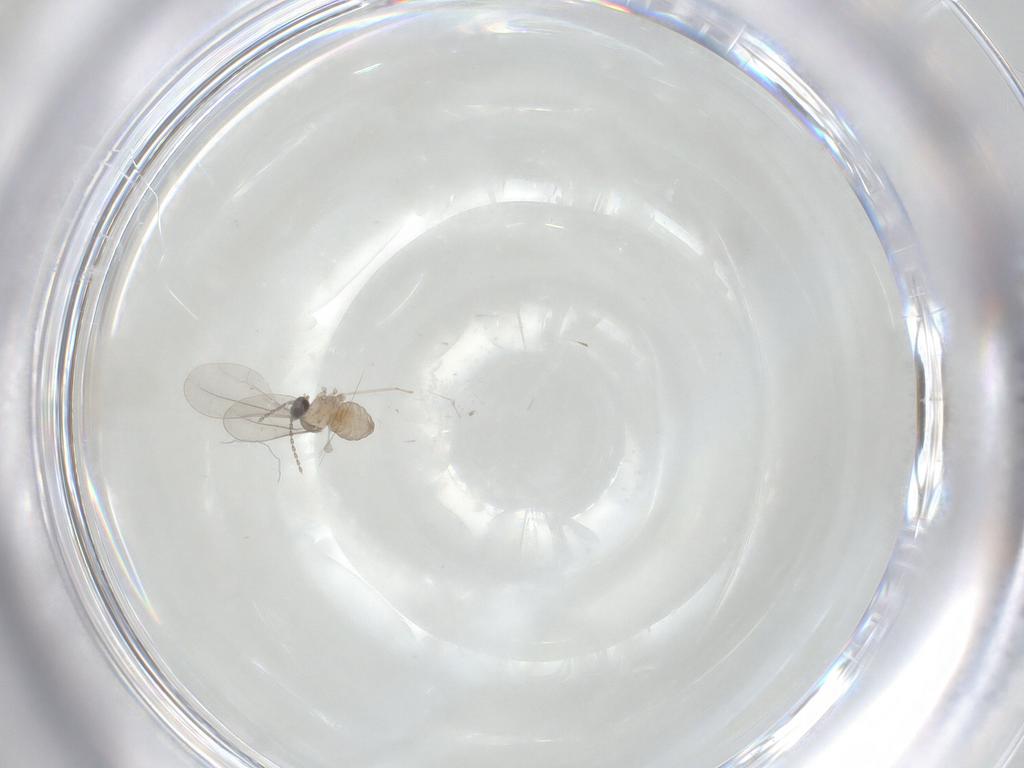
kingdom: Animalia
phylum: Arthropoda
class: Insecta
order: Diptera
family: Cecidomyiidae
